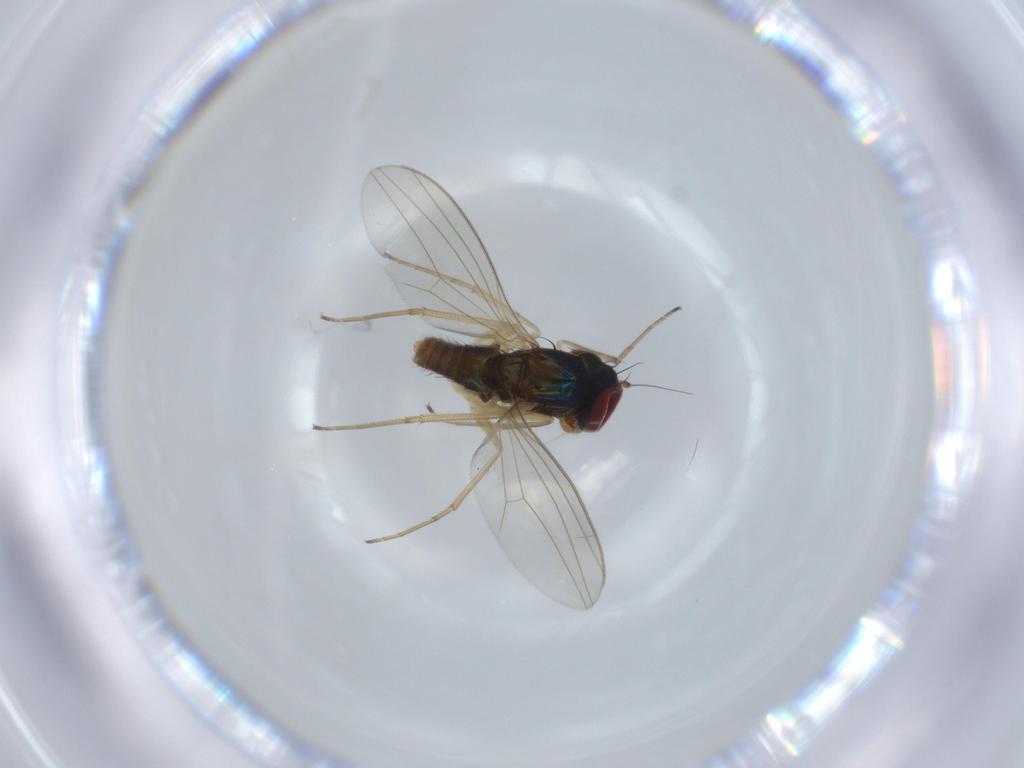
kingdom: Animalia
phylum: Arthropoda
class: Insecta
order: Diptera
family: Dolichopodidae
